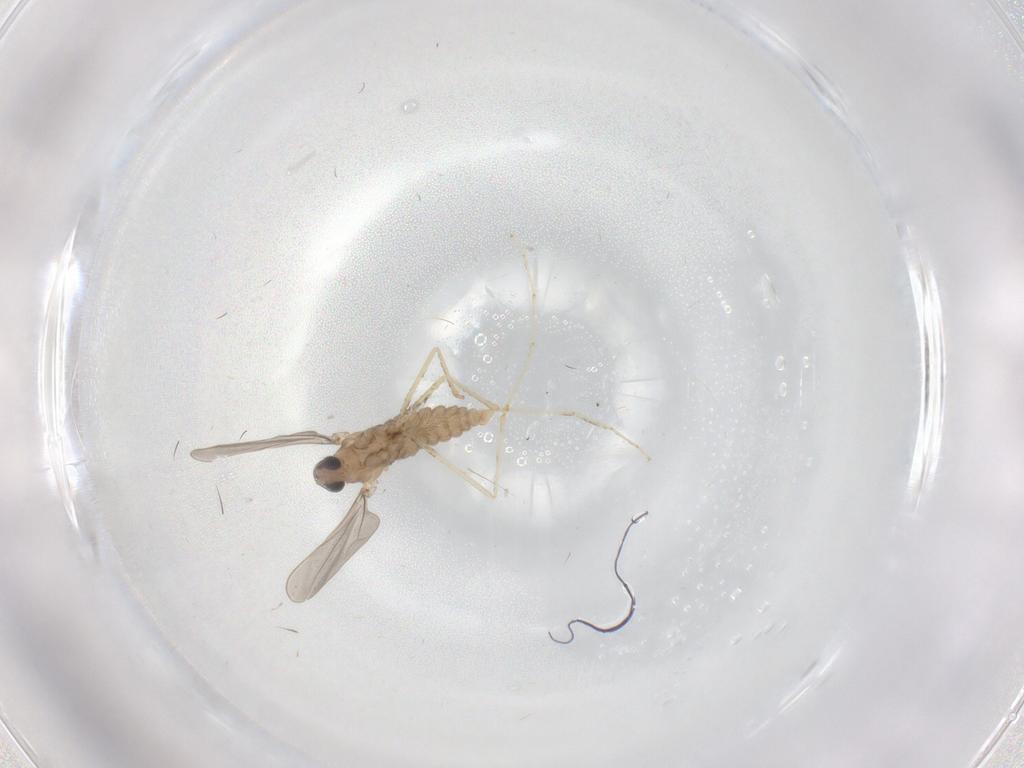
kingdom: Animalia
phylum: Arthropoda
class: Insecta
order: Diptera
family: Cecidomyiidae
